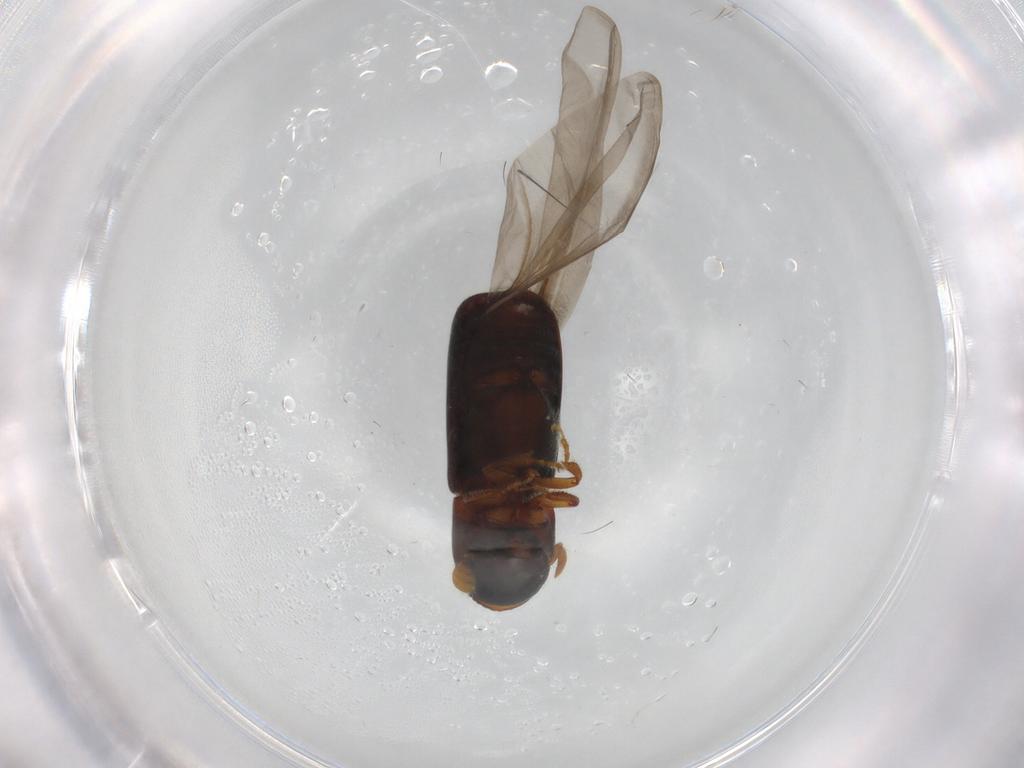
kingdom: Animalia
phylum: Arthropoda
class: Insecta
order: Coleoptera
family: Curculionidae
